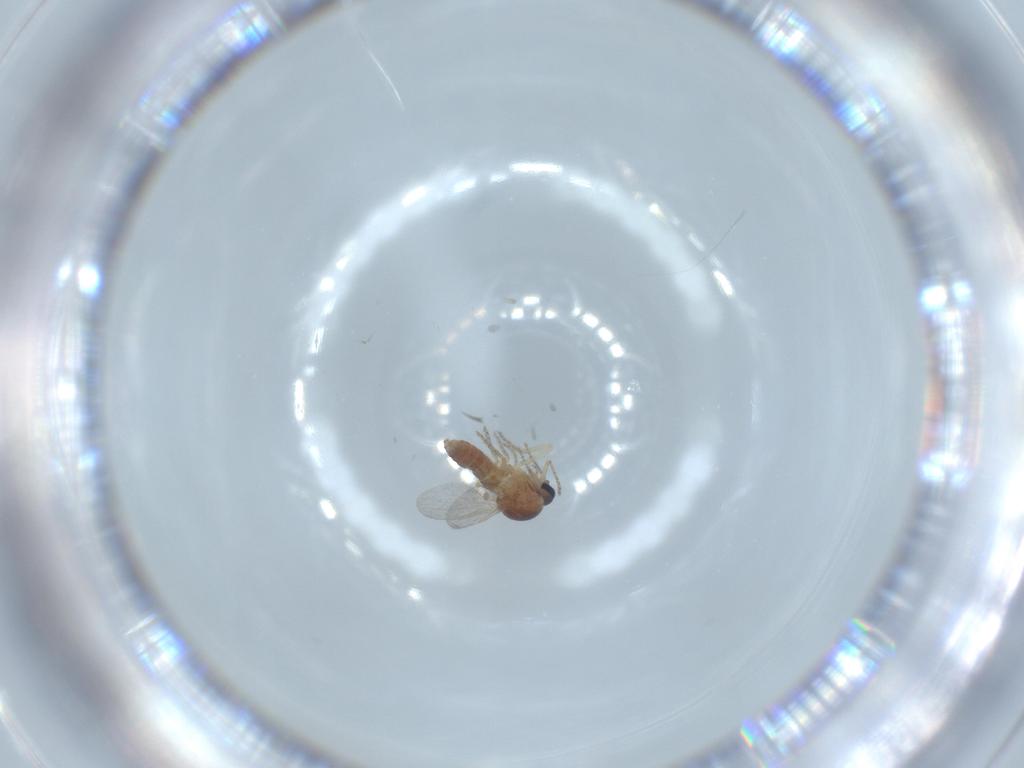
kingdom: Animalia
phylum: Arthropoda
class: Insecta
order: Diptera
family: Ceratopogonidae
